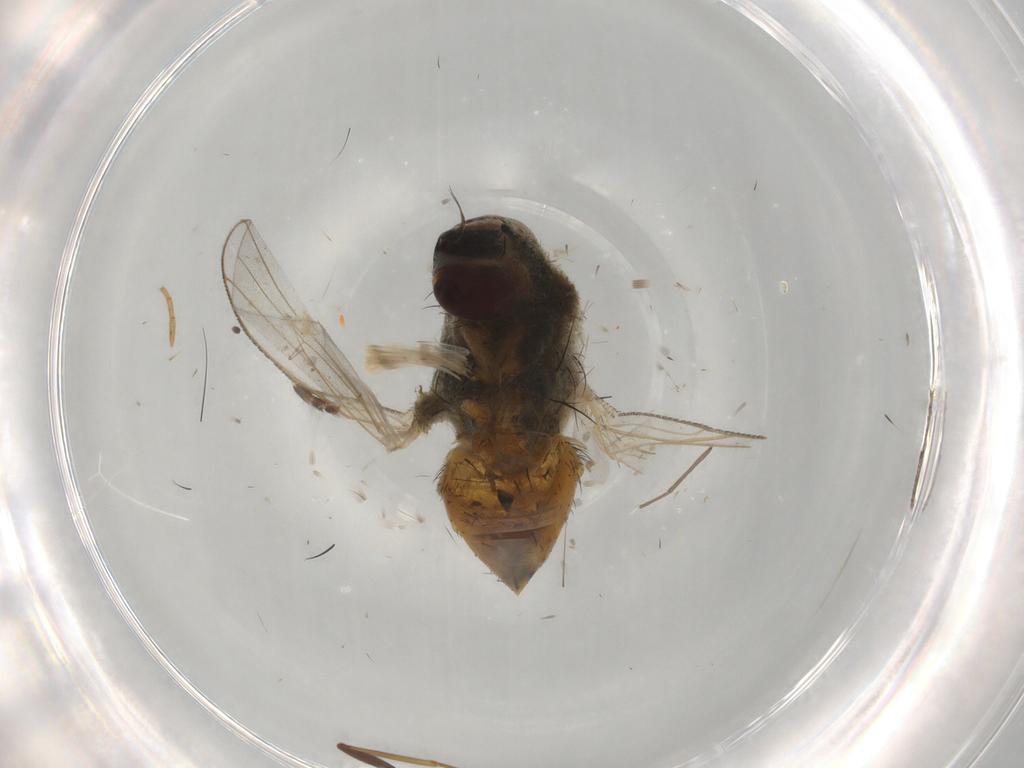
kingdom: Animalia
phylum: Arthropoda
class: Insecta
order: Diptera
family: Muscidae
